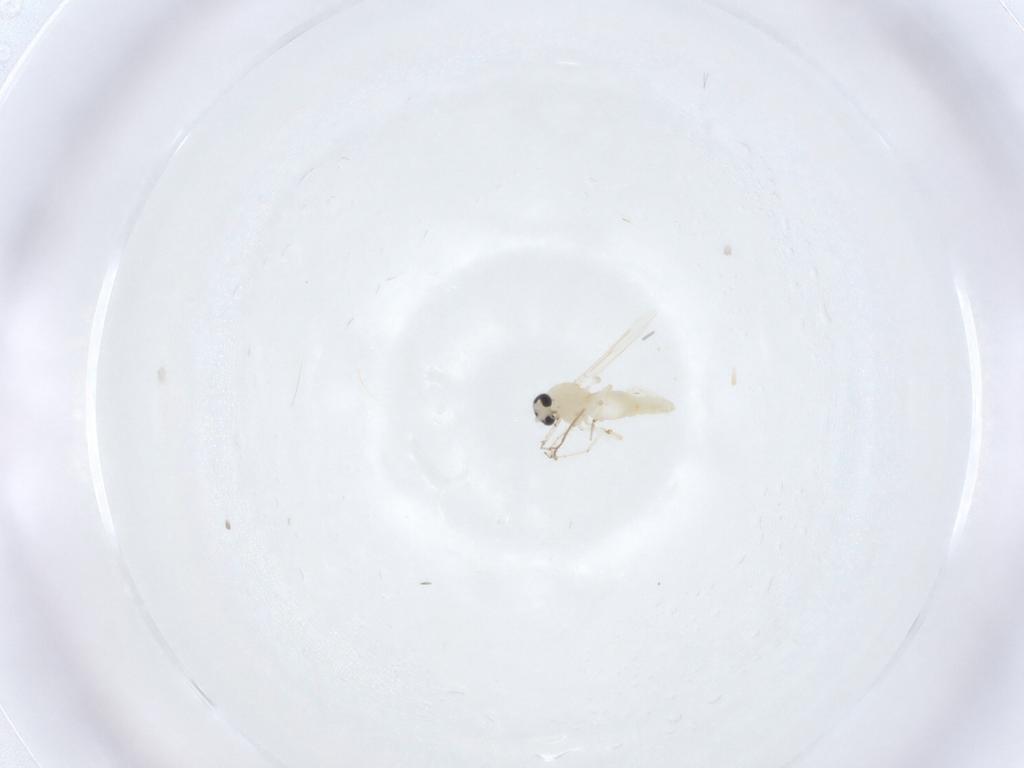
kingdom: Animalia
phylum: Arthropoda
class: Insecta
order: Diptera
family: Ceratopogonidae
